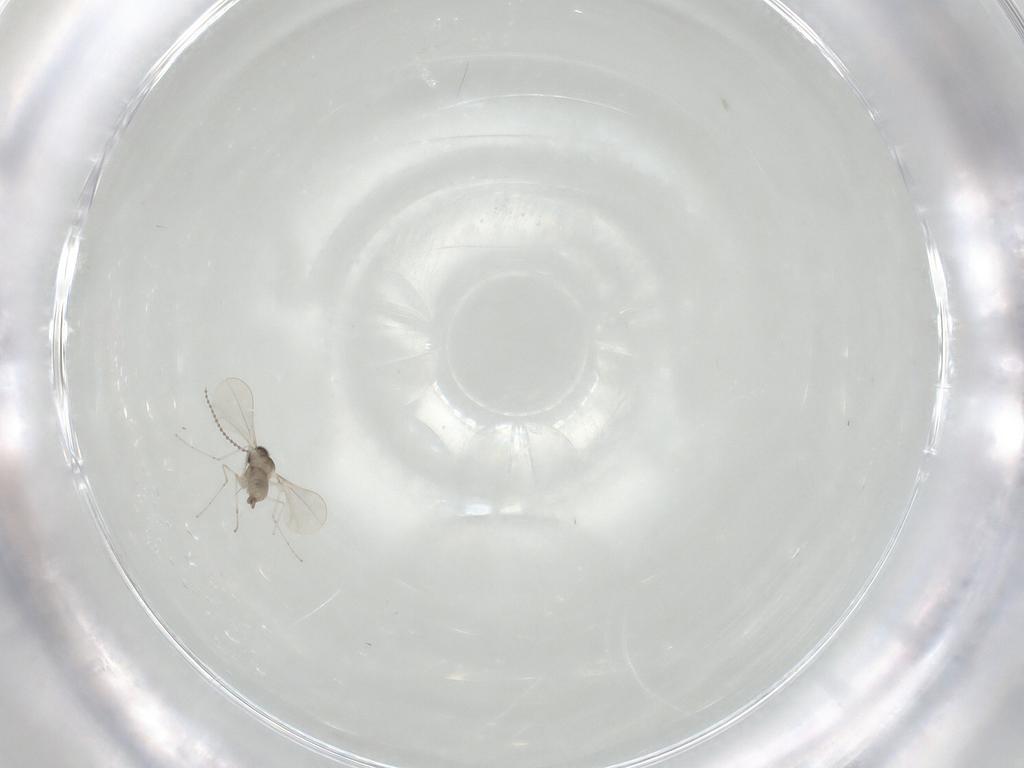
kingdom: Animalia
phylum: Arthropoda
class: Insecta
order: Diptera
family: Cecidomyiidae
